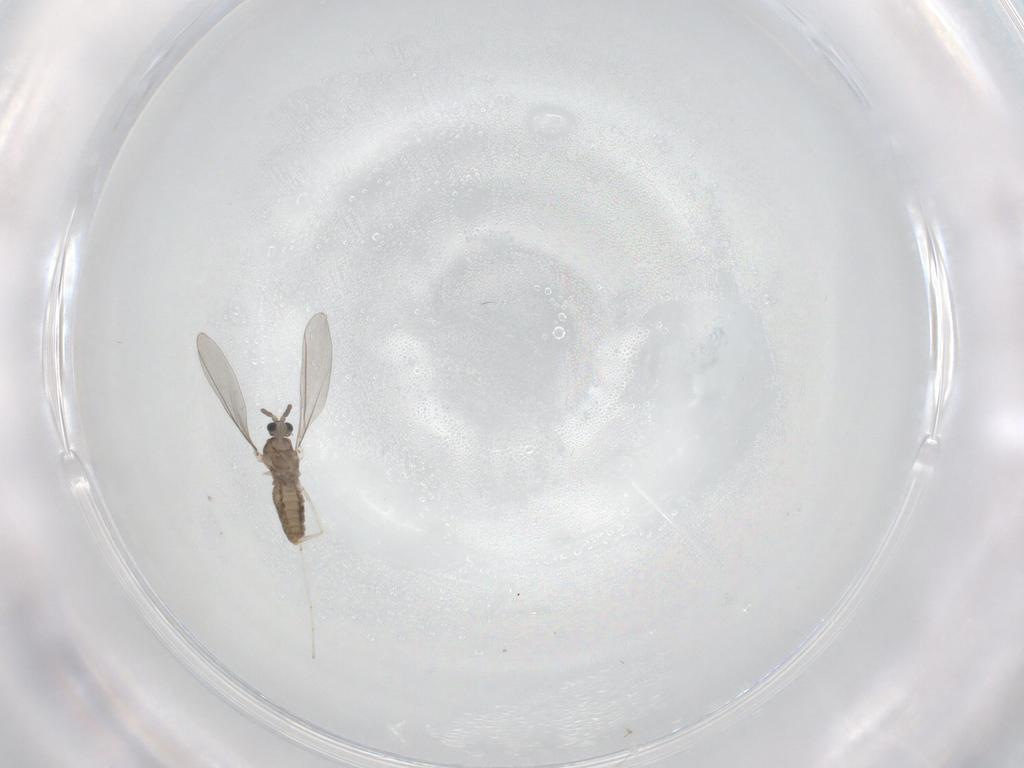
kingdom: Animalia
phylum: Arthropoda
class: Insecta
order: Diptera
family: Cecidomyiidae
